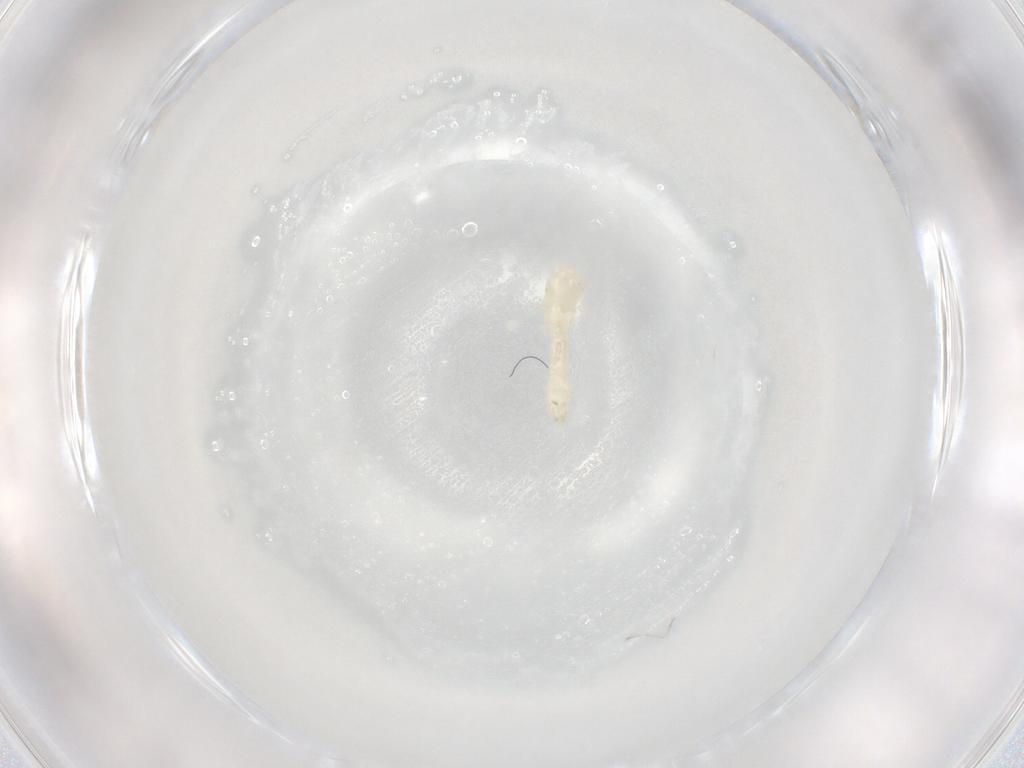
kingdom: Animalia
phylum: Arthropoda
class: Insecta
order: Diptera
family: Cecidomyiidae
